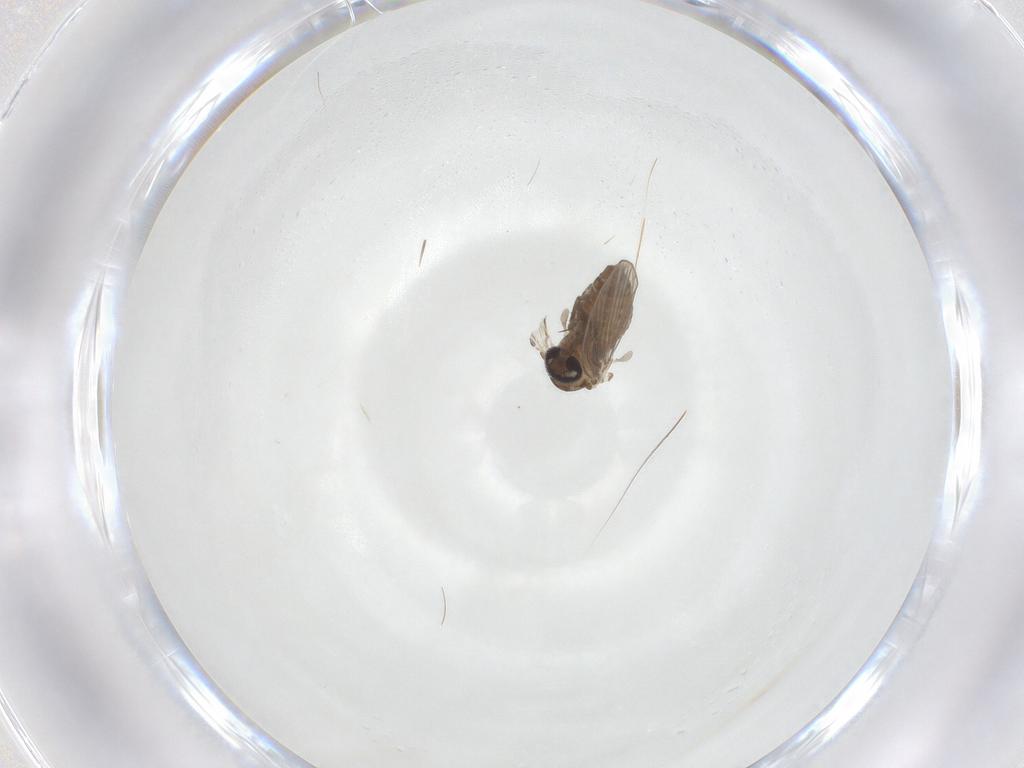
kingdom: Animalia
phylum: Arthropoda
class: Insecta
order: Diptera
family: Psychodidae
